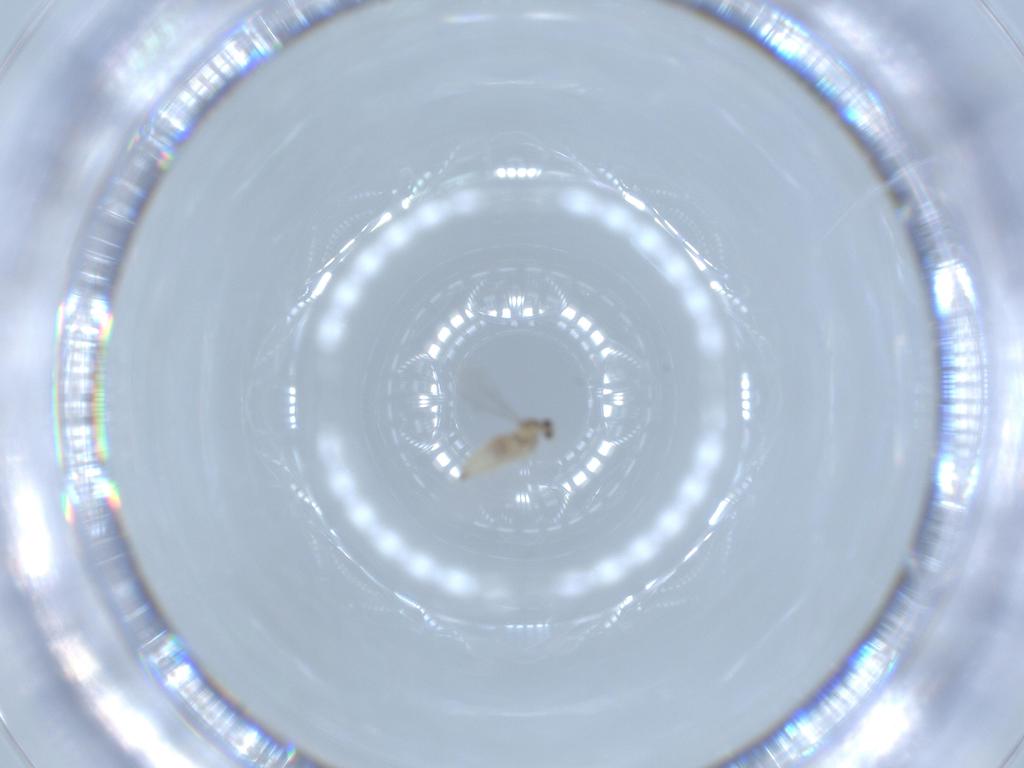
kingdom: Animalia
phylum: Arthropoda
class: Insecta
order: Diptera
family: Cecidomyiidae
